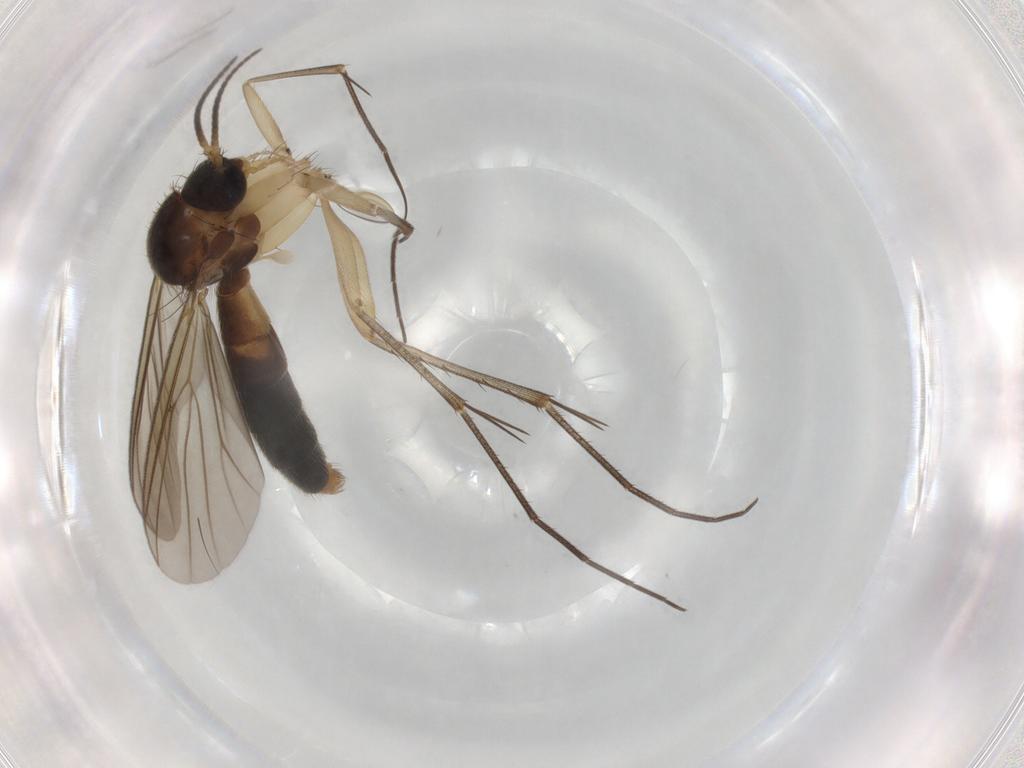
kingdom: Animalia
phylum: Arthropoda
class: Insecta
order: Diptera
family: Mycetophilidae
